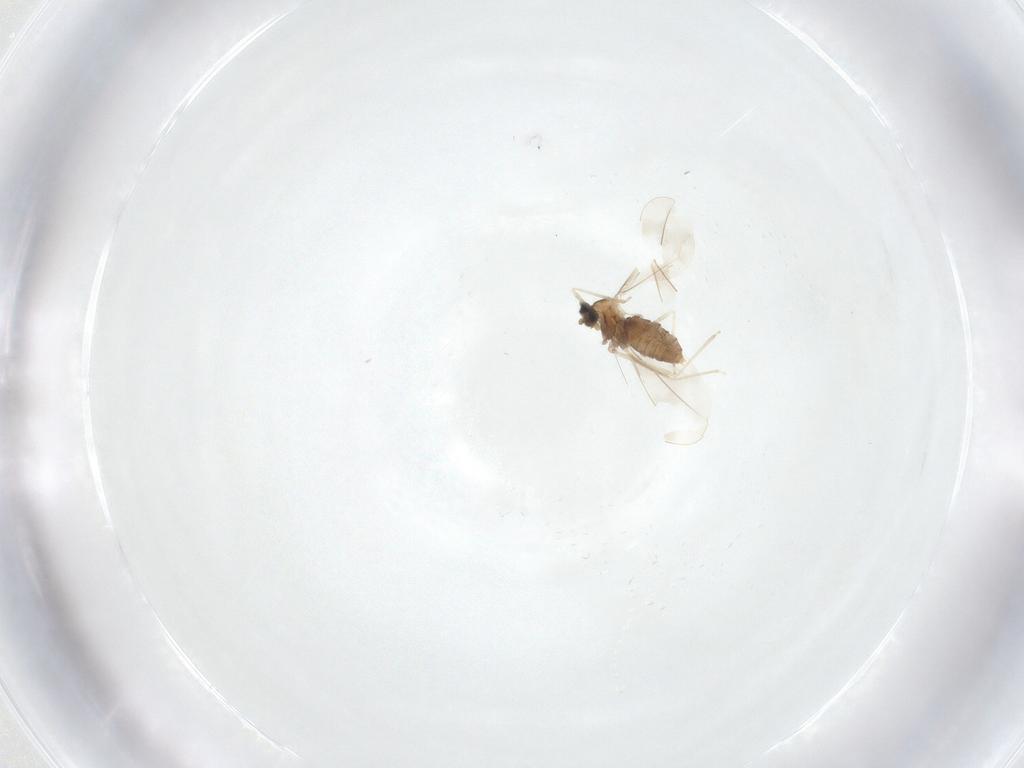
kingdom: Animalia
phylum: Arthropoda
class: Insecta
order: Diptera
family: Cecidomyiidae
